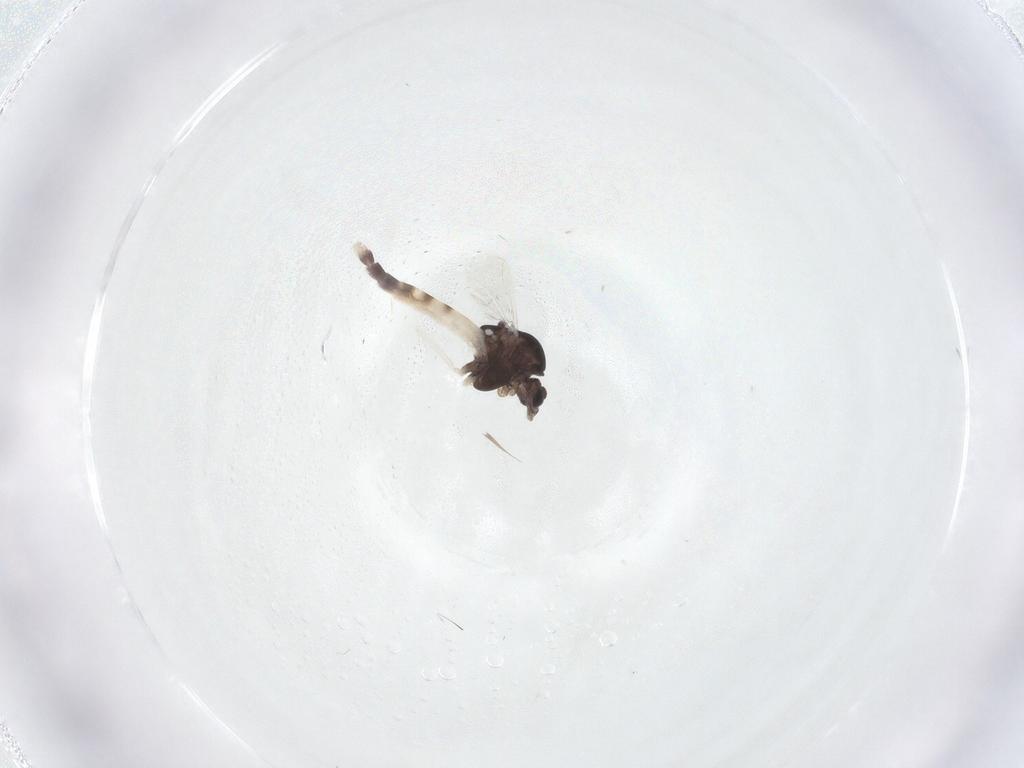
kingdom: Animalia
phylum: Arthropoda
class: Insecta
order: Diptera
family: Chironomidae
